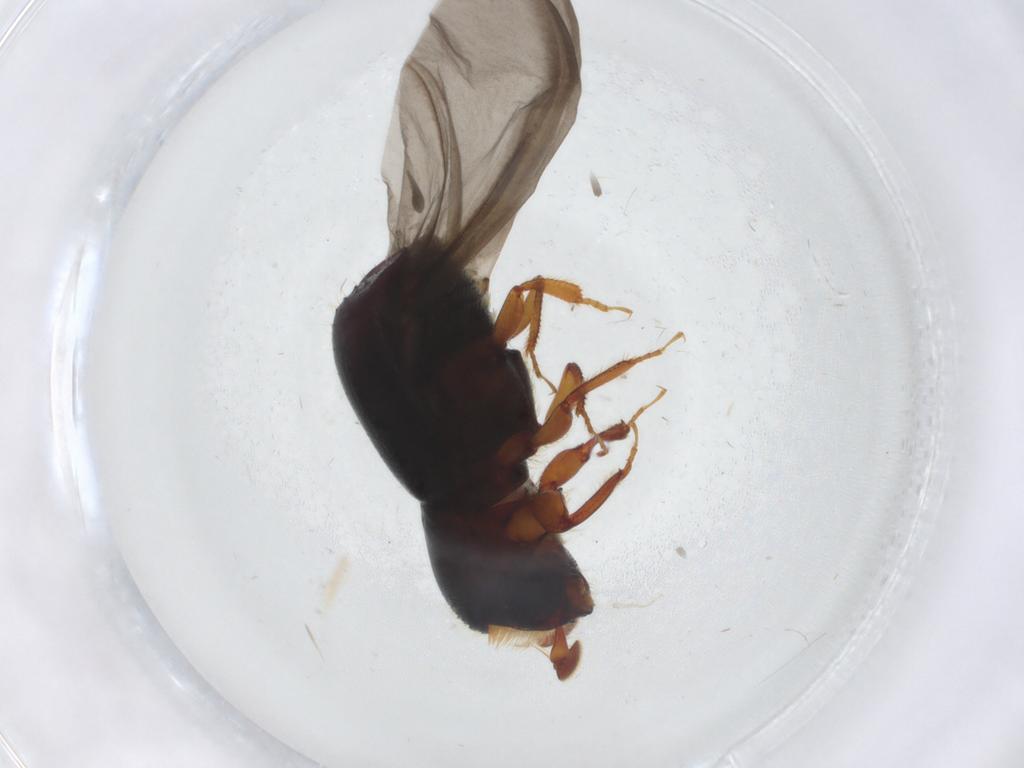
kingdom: Animalia
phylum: Arthropoda
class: Insecta
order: Coleoptera
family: Curculionidae
